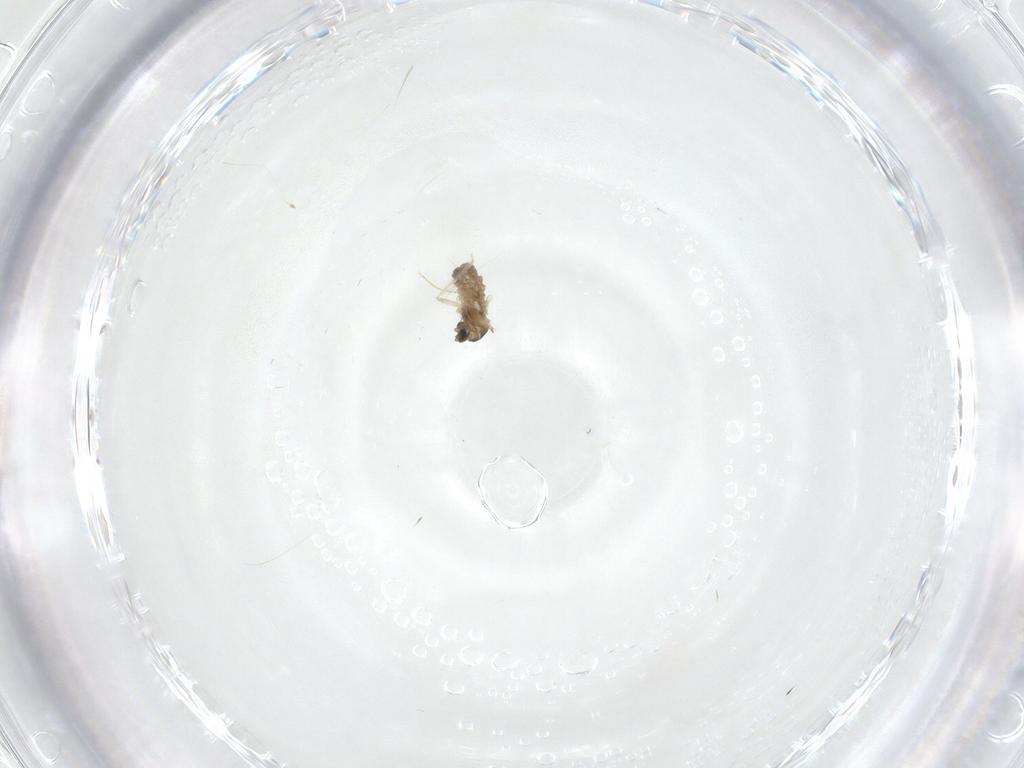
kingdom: Animalia
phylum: Arthropoda
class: Insecta
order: Diptera
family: Cecidomyiidae
